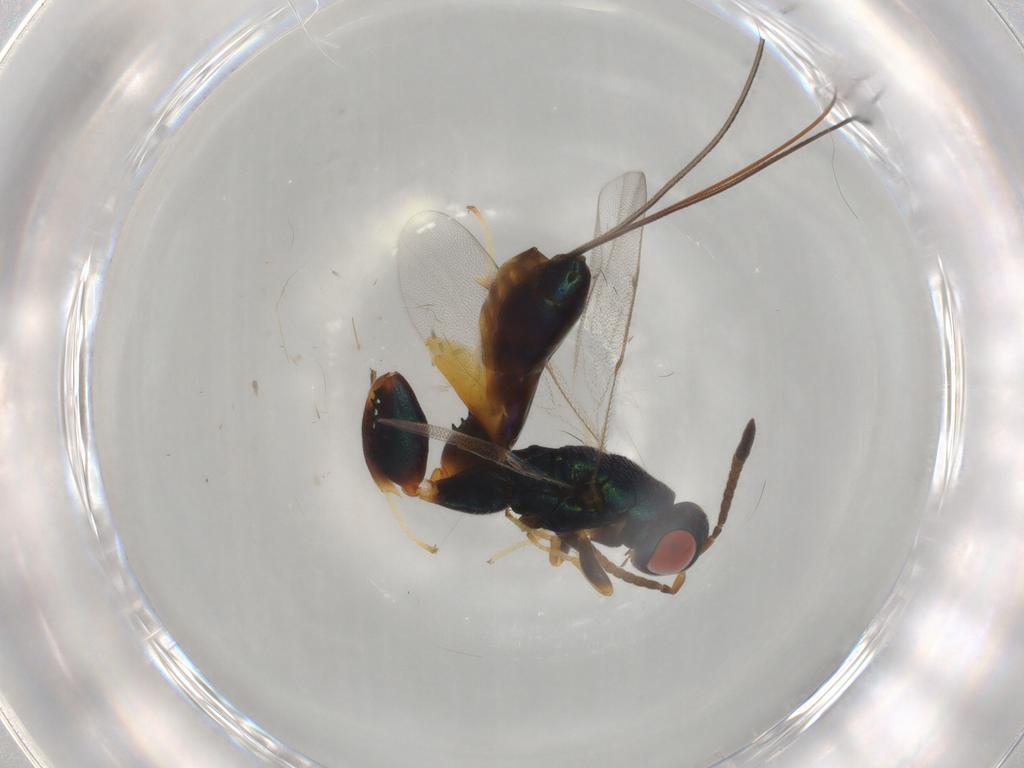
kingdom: Animalia
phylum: Arthropoda
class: Insecta
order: Hymenoptera
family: Torymidae
